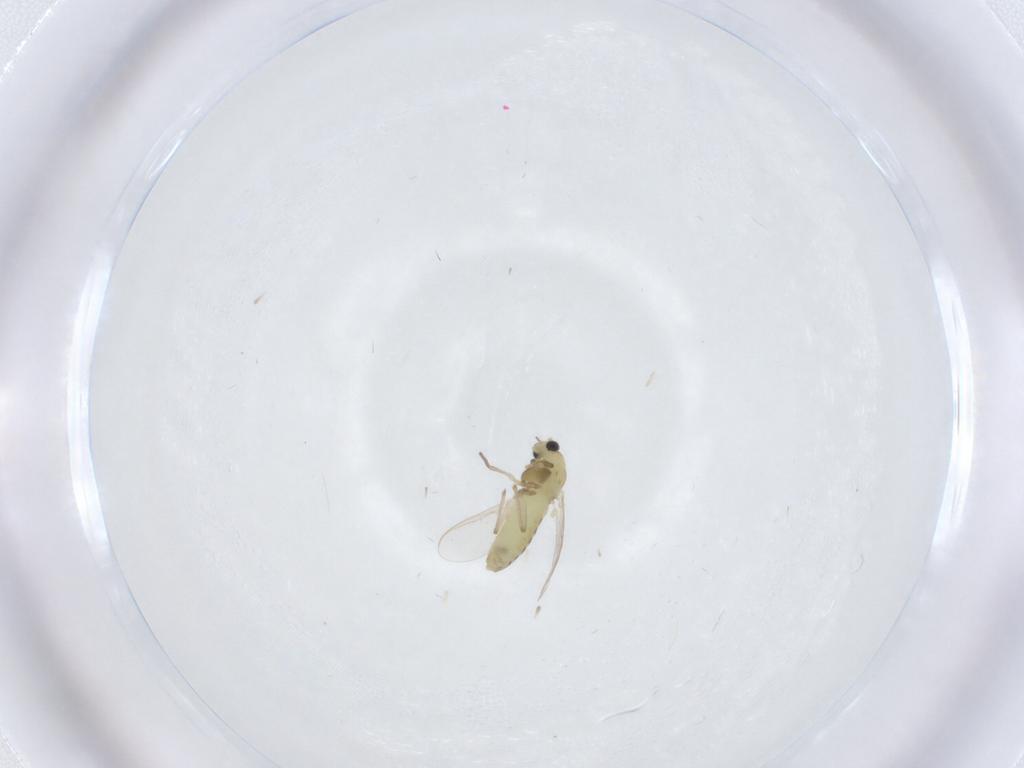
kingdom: Animalia
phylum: Arthropoda
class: Insecta
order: Diptera
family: Chironomidae
